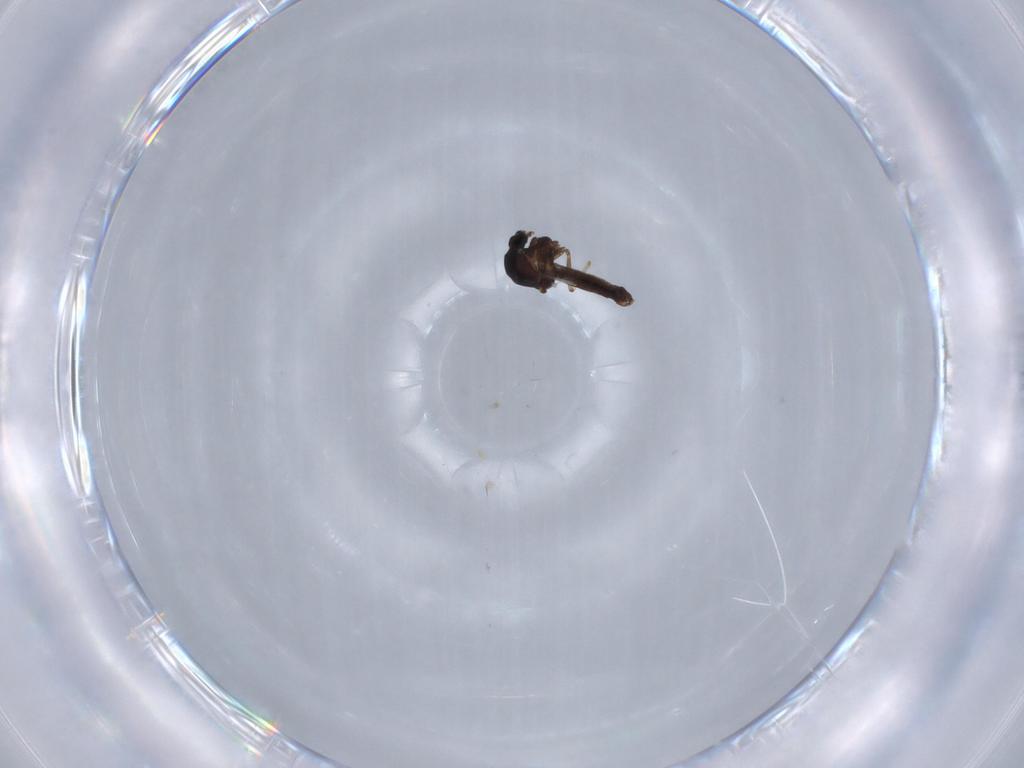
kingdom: Animalia
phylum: Arthropoda
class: Insecta
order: Diptera
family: Ceratopogonidae
